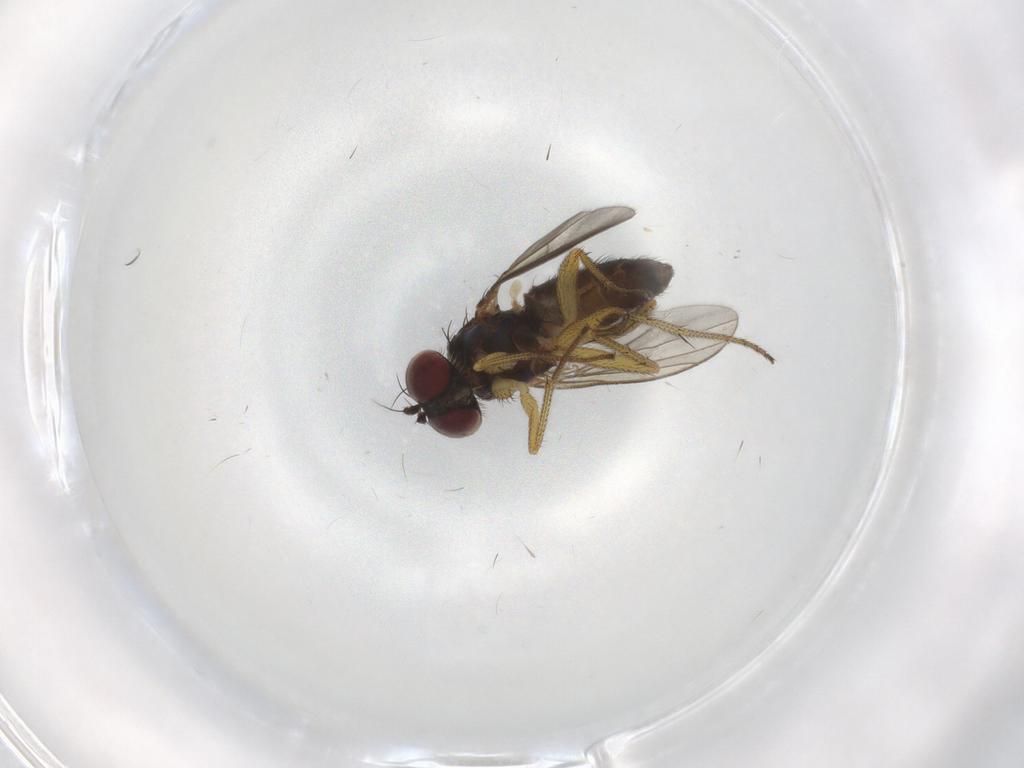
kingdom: Animalia
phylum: Arthropoda
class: Insecta
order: Diptera
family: Dolichopodidae
